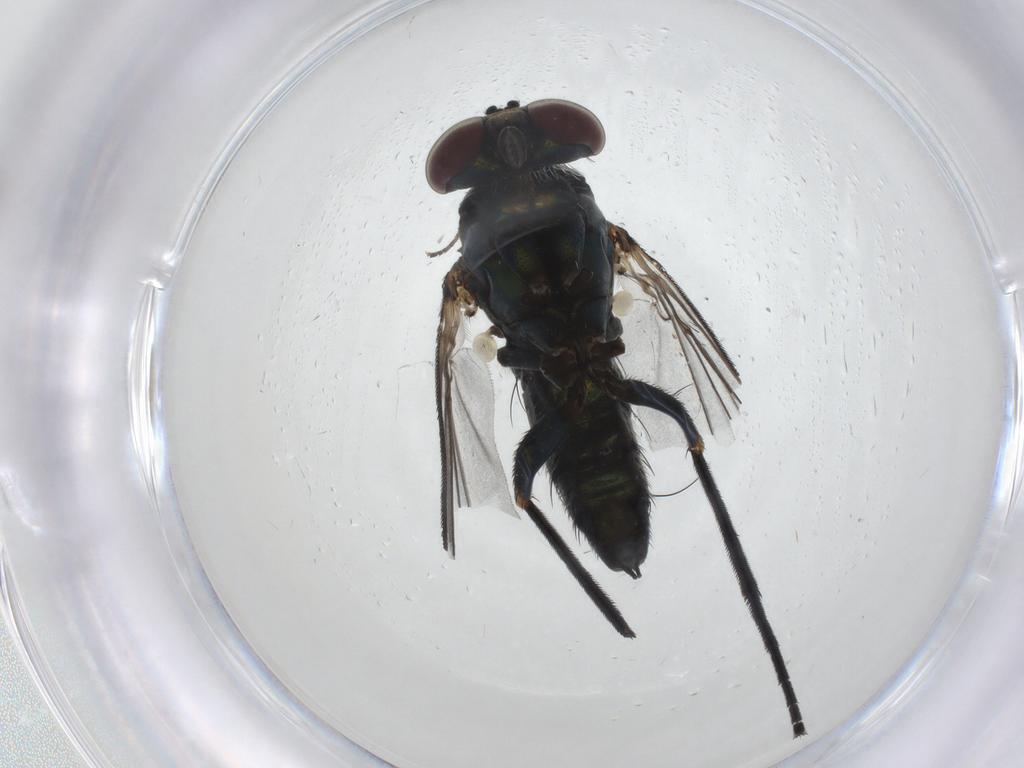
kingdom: Animalia
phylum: Arthropoda
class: Insecta
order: Diptera
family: Dolichopodidae
